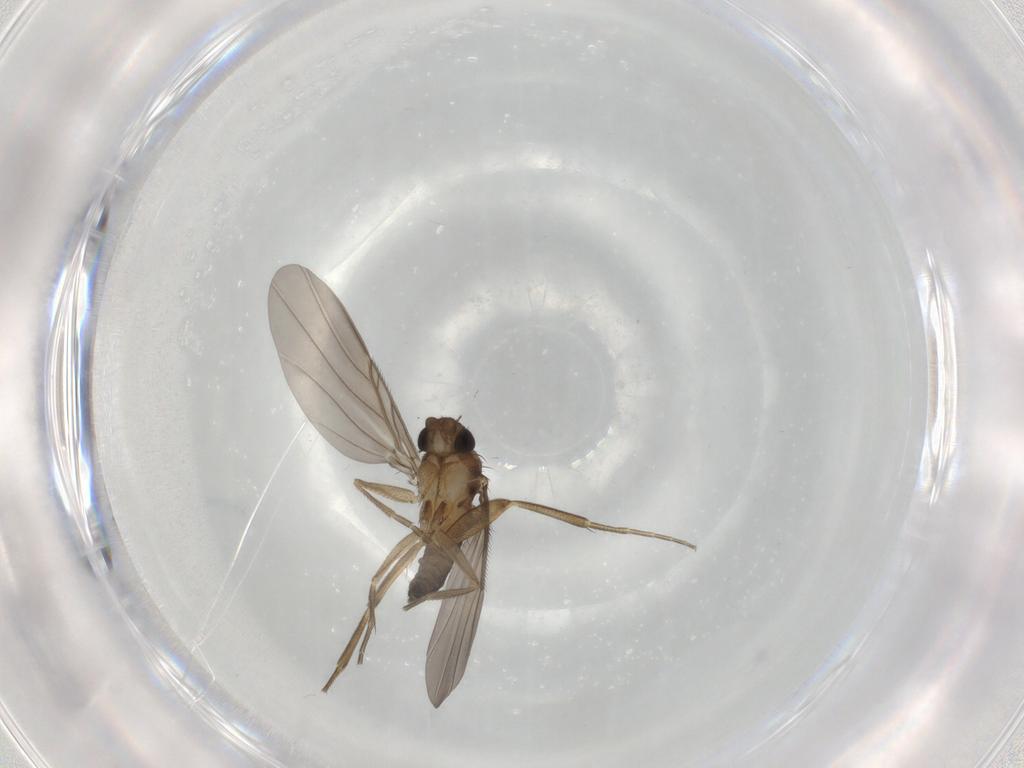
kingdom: Animalia
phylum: Arthropoda
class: Insecta
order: Diptera
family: Phoridae
